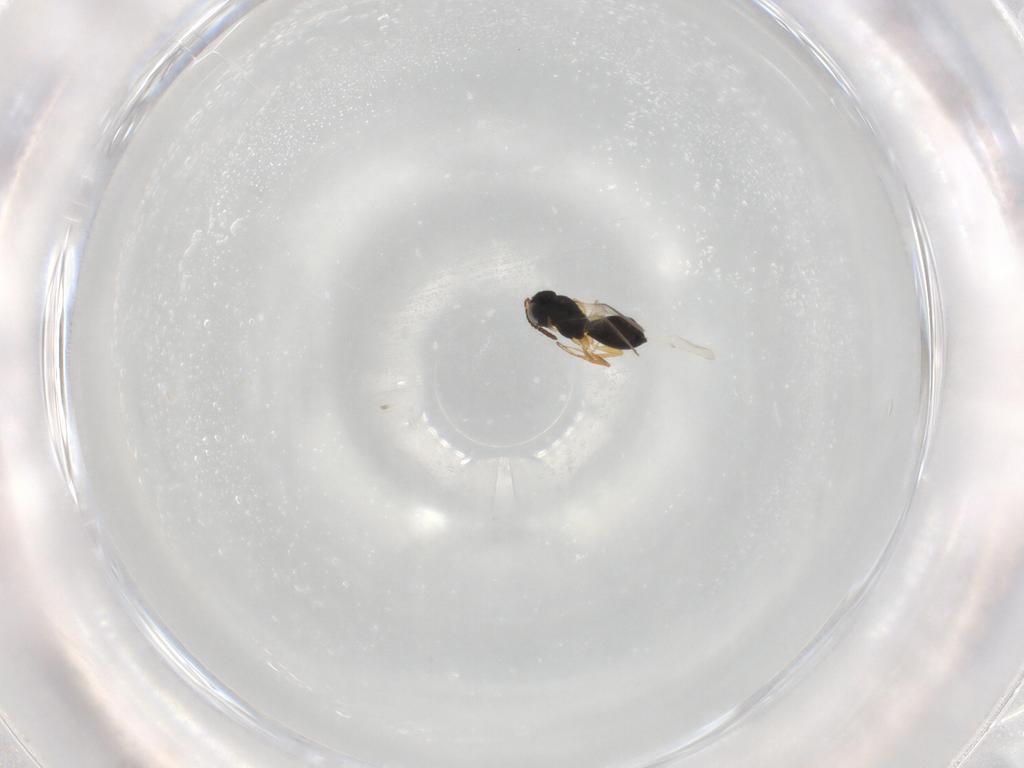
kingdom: Animalia
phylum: Arthropoda
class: Insecta
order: Hymenoptera
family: Scelionidae
